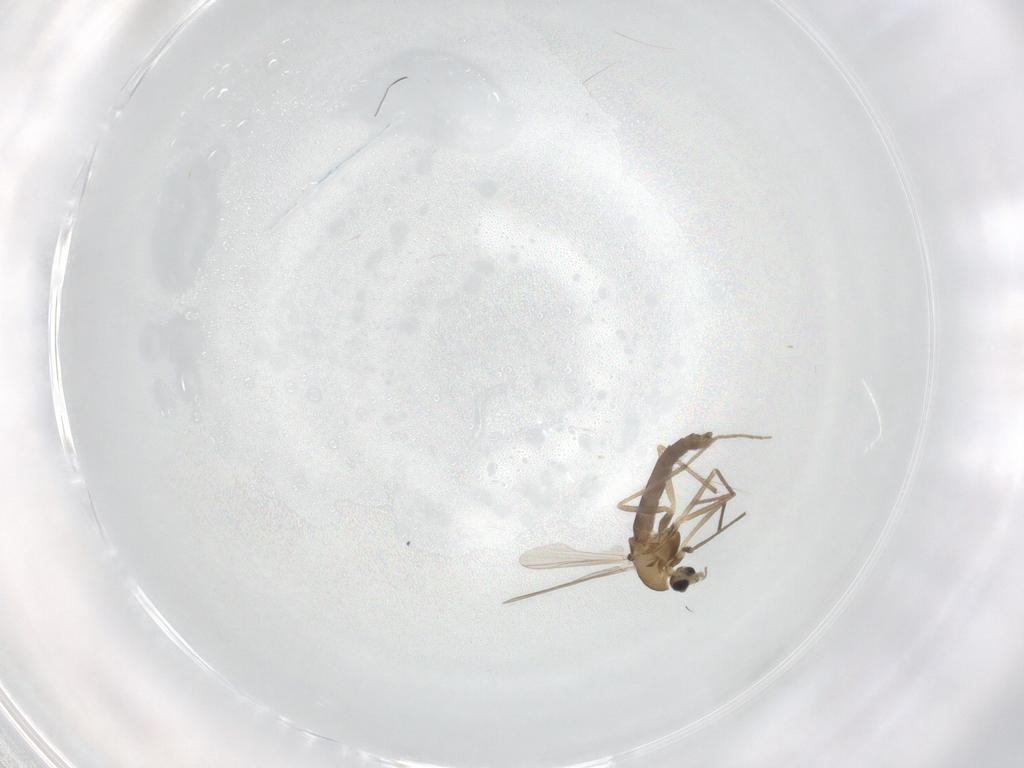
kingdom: Animalia
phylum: Arthropoda
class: Insecta
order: Diptera
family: Chironomidae
